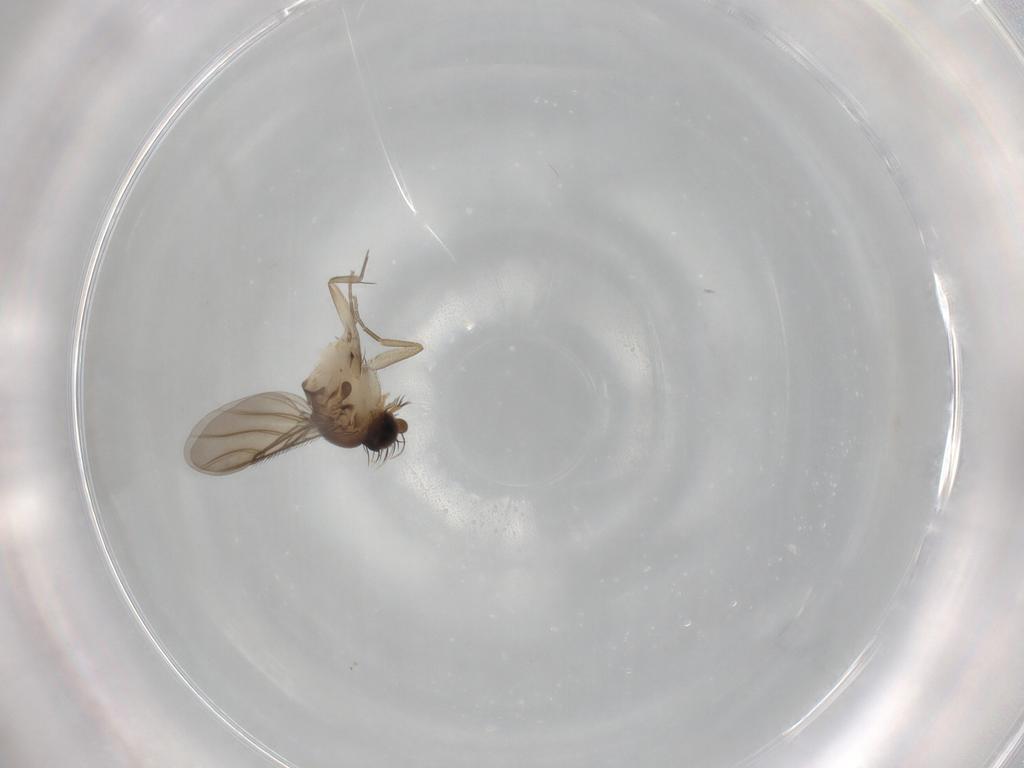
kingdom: Animalia
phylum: Arthropoda
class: Insecta
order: Diptera
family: Phoridae
